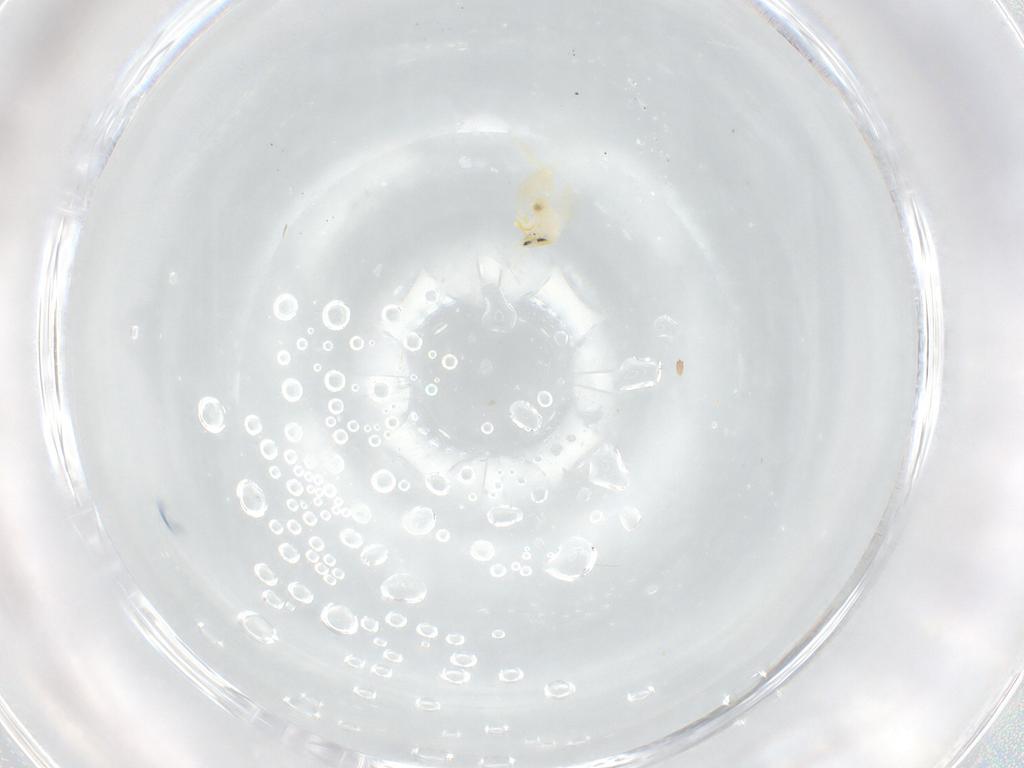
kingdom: Animalia
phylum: Arthropoda
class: Insecta
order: Hemiptera
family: Aleyrodidae
